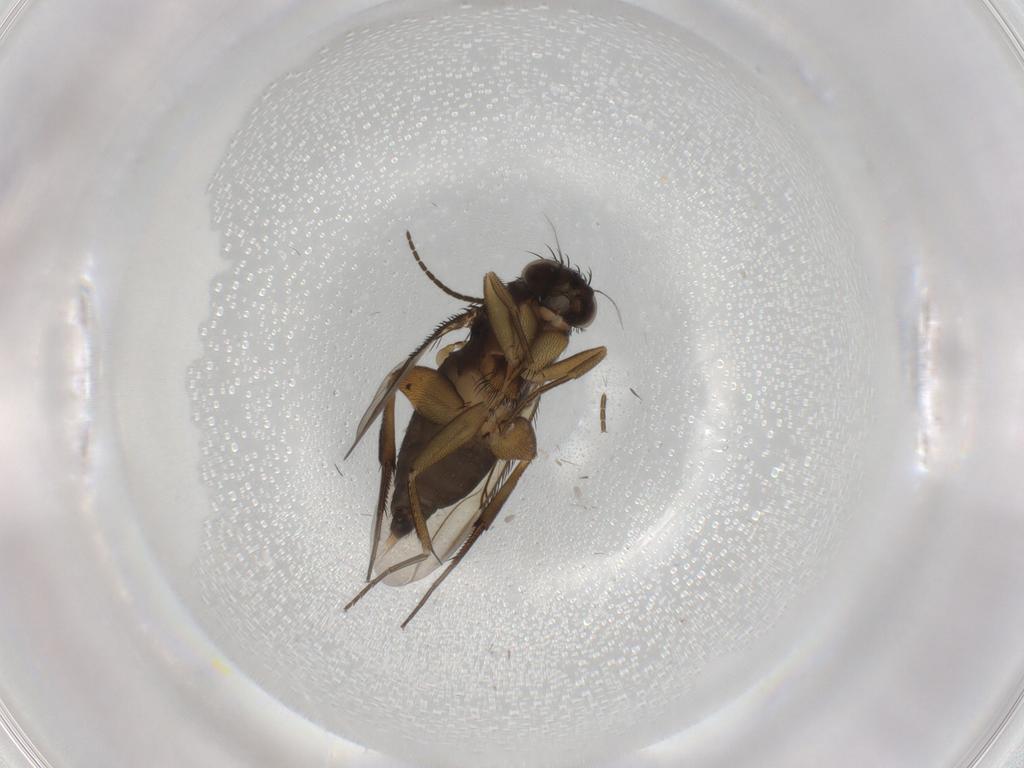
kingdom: Animalia
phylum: Arthropoda
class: Insecta
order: Diptera
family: Phoridae
